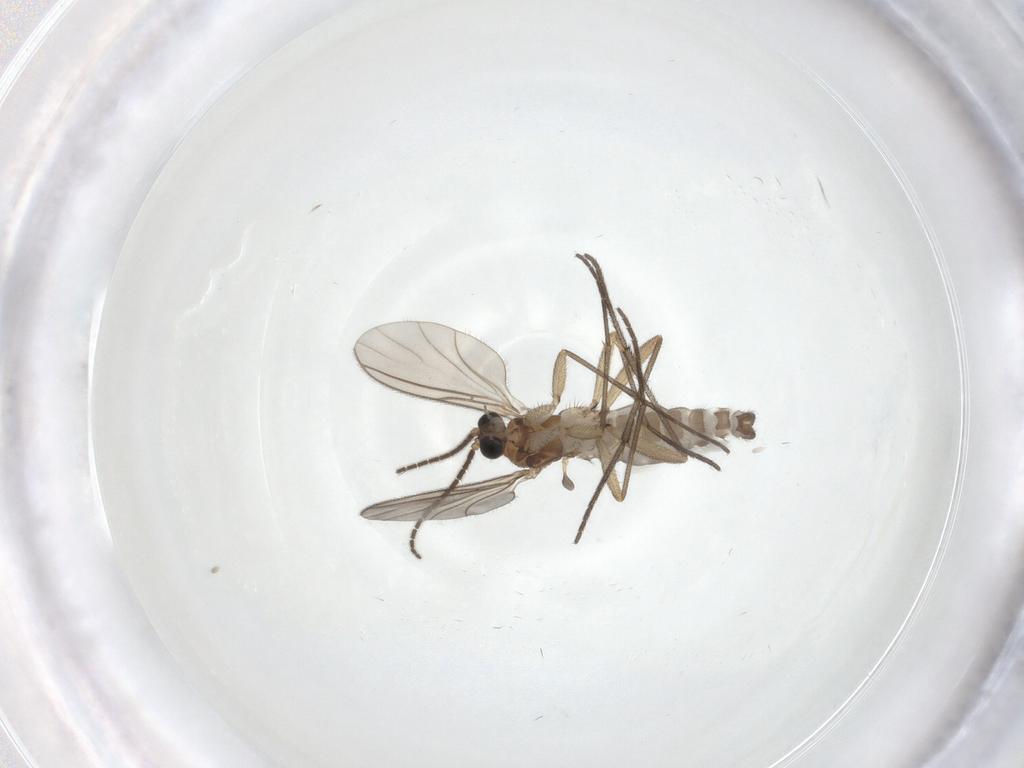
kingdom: Animalia
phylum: Arthropoda
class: Insecta
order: Diptera
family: Sciaridae
